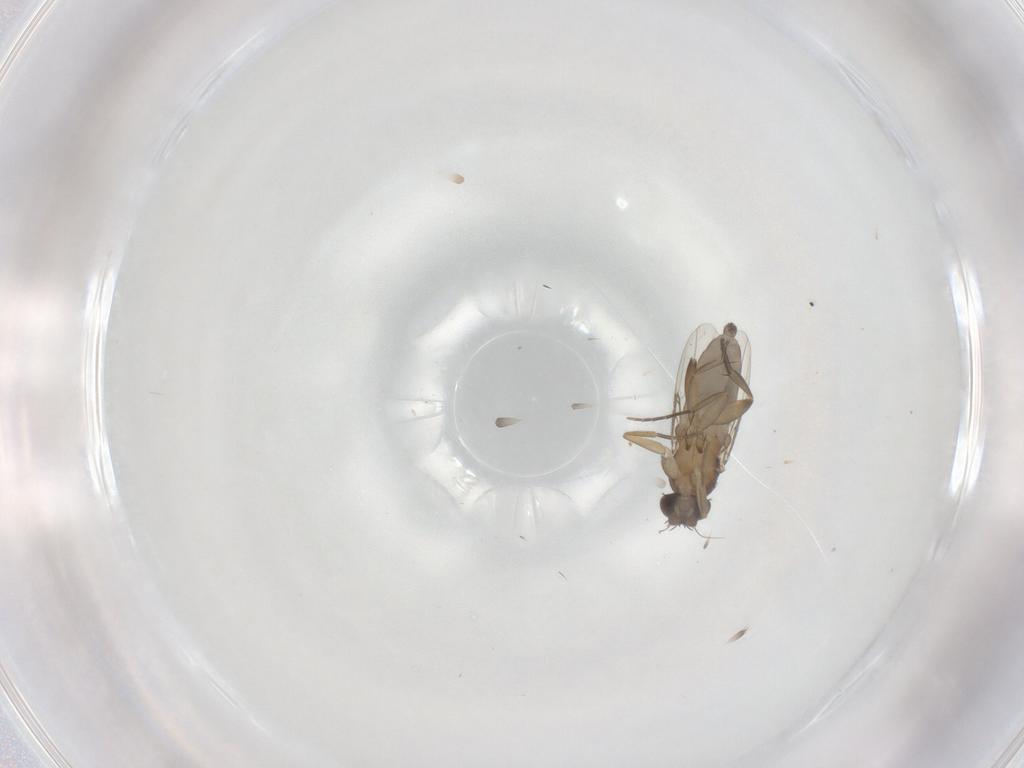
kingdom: Animalia
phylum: Arthropoda
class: Insecta
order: Diptera
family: Phoridae
